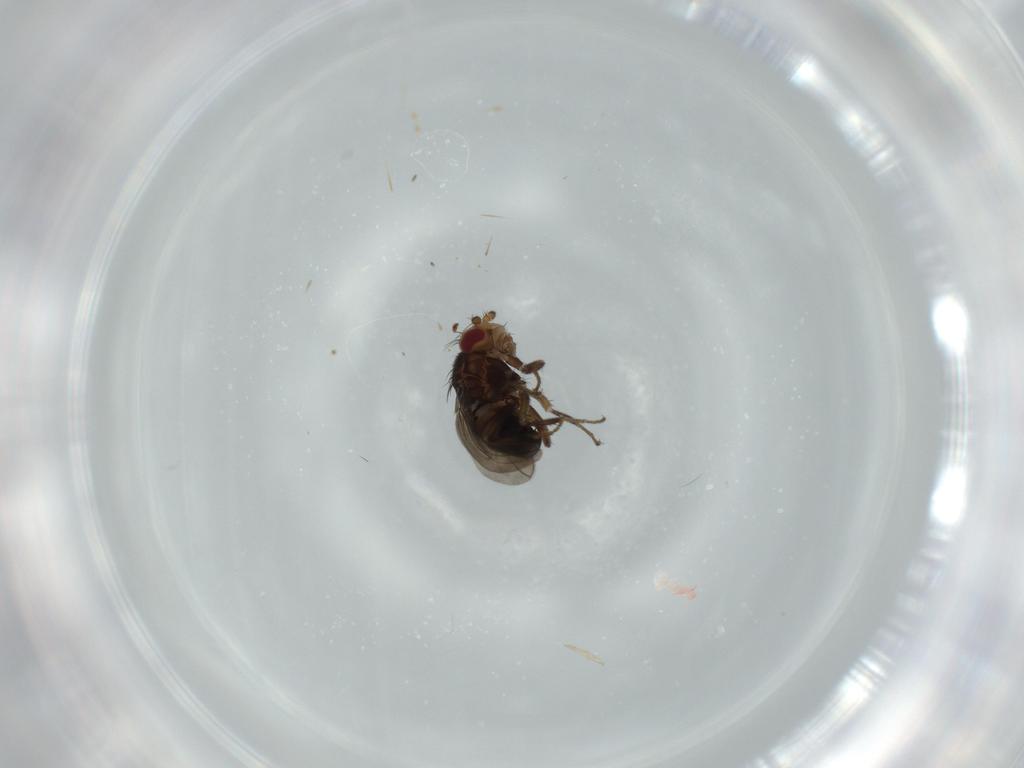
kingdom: Animalia
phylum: Arthropoda
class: Insecta
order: Diptera
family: Sphaeroceridae
